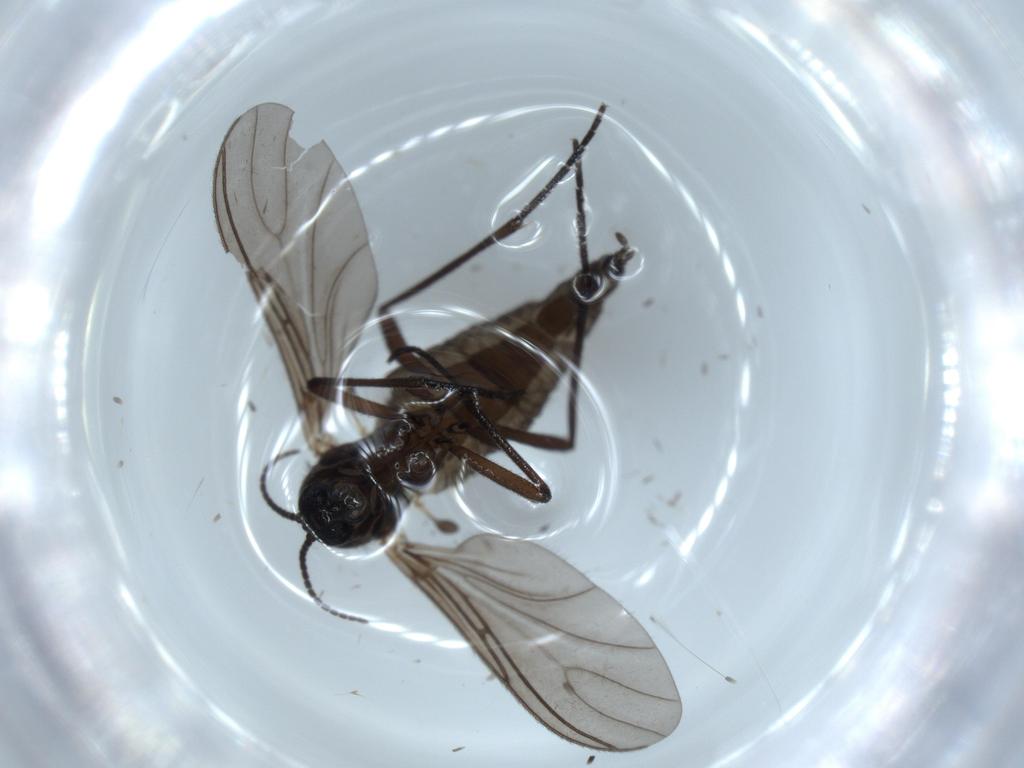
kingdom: Animalia
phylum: Arthropoda
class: Insecta
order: Diptera
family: Sciaridae
